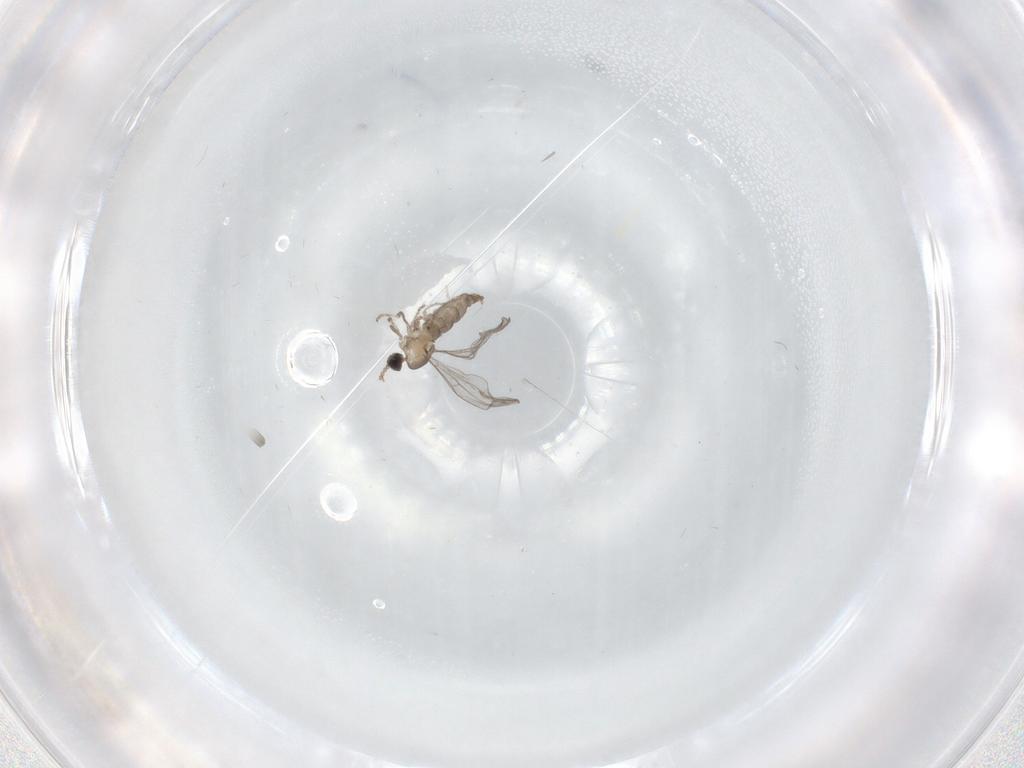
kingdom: Animalia
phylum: Arthropoda
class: Insecta
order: Diptera
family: Cecidomyiidae
